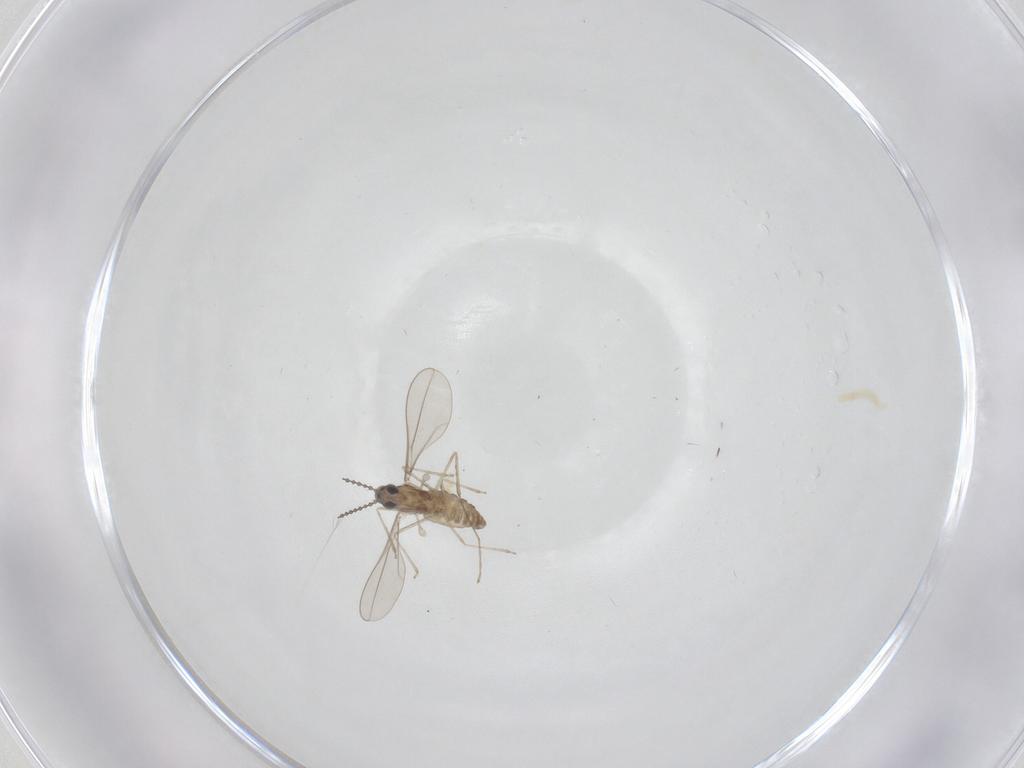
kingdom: Animalia
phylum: Arthropoda
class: Insecta
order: Diptera
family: Cecidomyiidae
